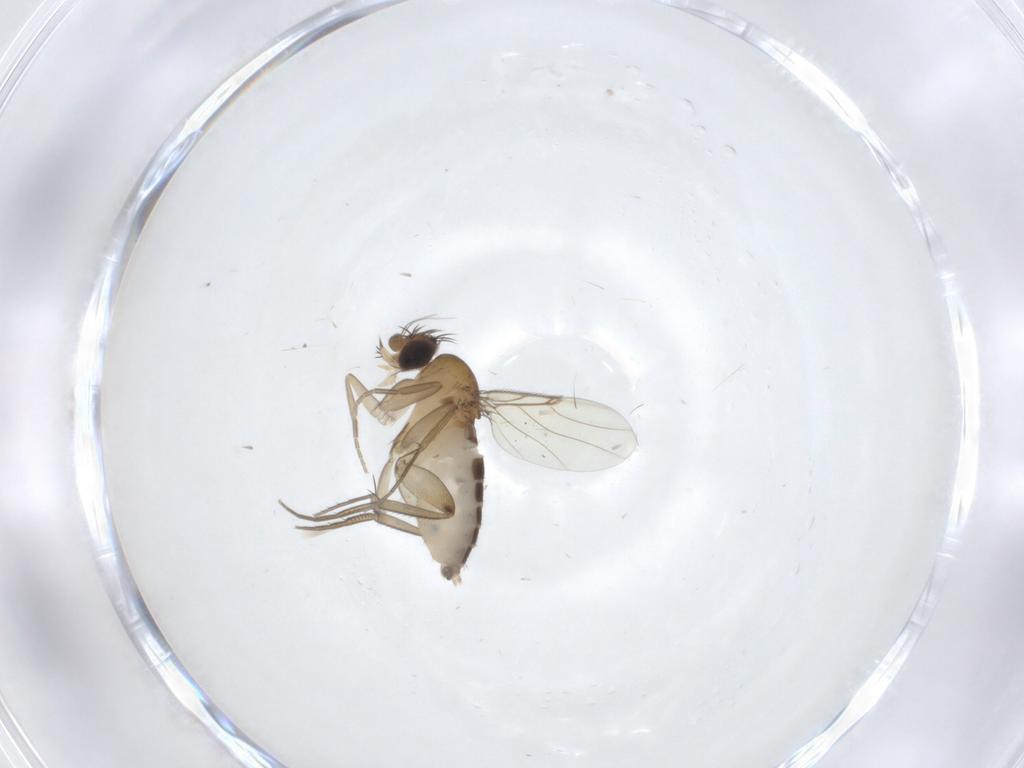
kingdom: Animalia
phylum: Arthropoda
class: Insecta
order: Diptera
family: Phoridae
